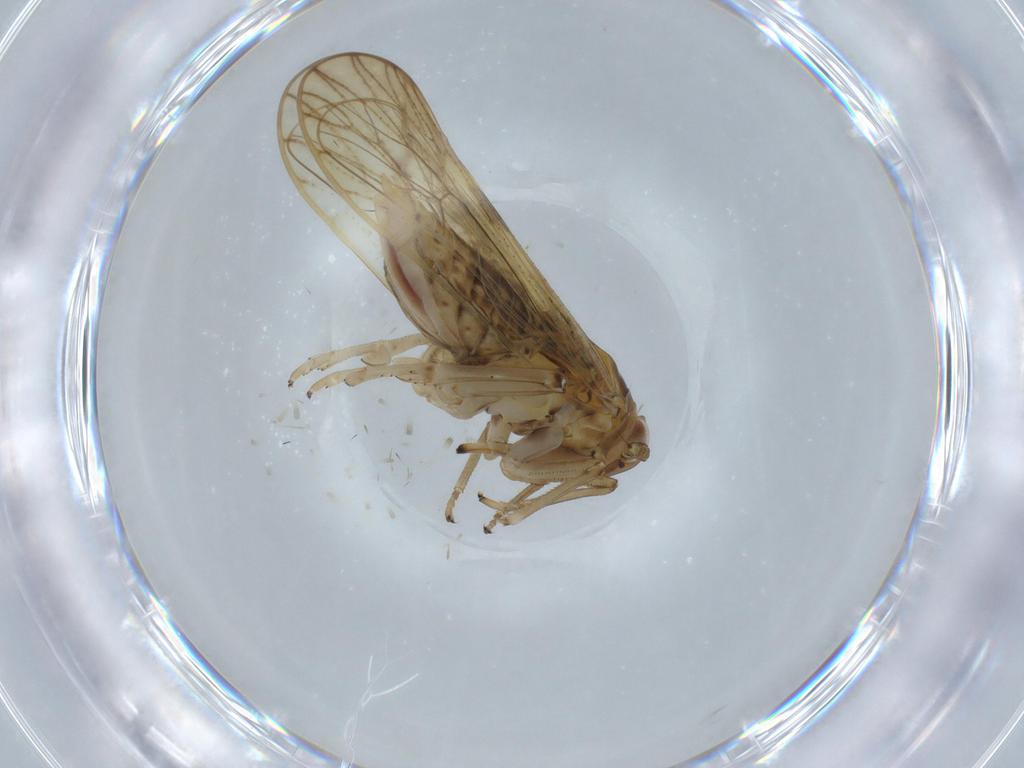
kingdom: Animalia
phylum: Arthropoda
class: Insecta
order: Hemiptera
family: Delphacidae
